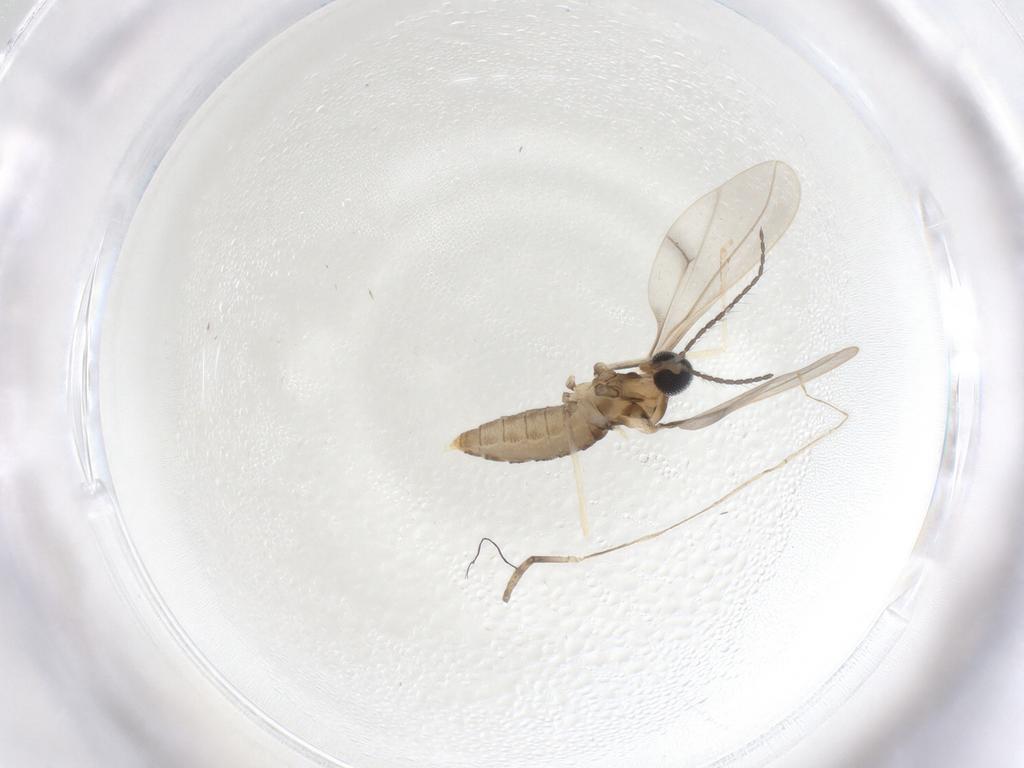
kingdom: Animalia
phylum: Arthropoda
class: Insecta
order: Diptera
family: Cecidomyiidae
